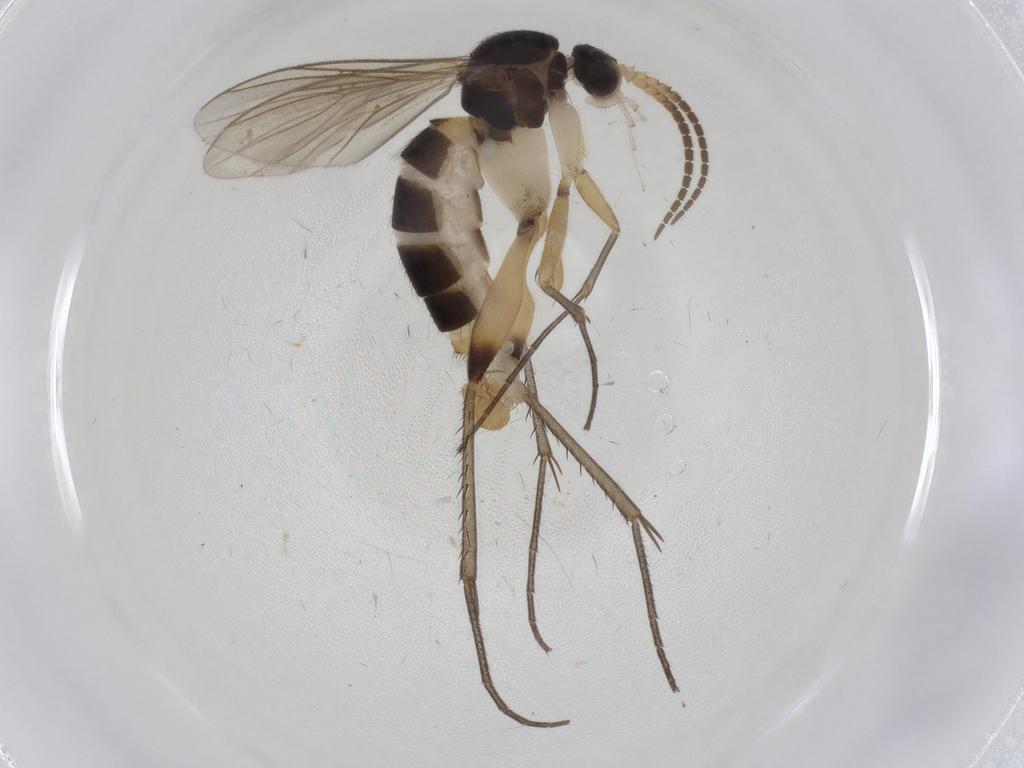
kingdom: Animalia
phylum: Arthropoda
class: Insecta
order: Diptera
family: Mycetophilidae
